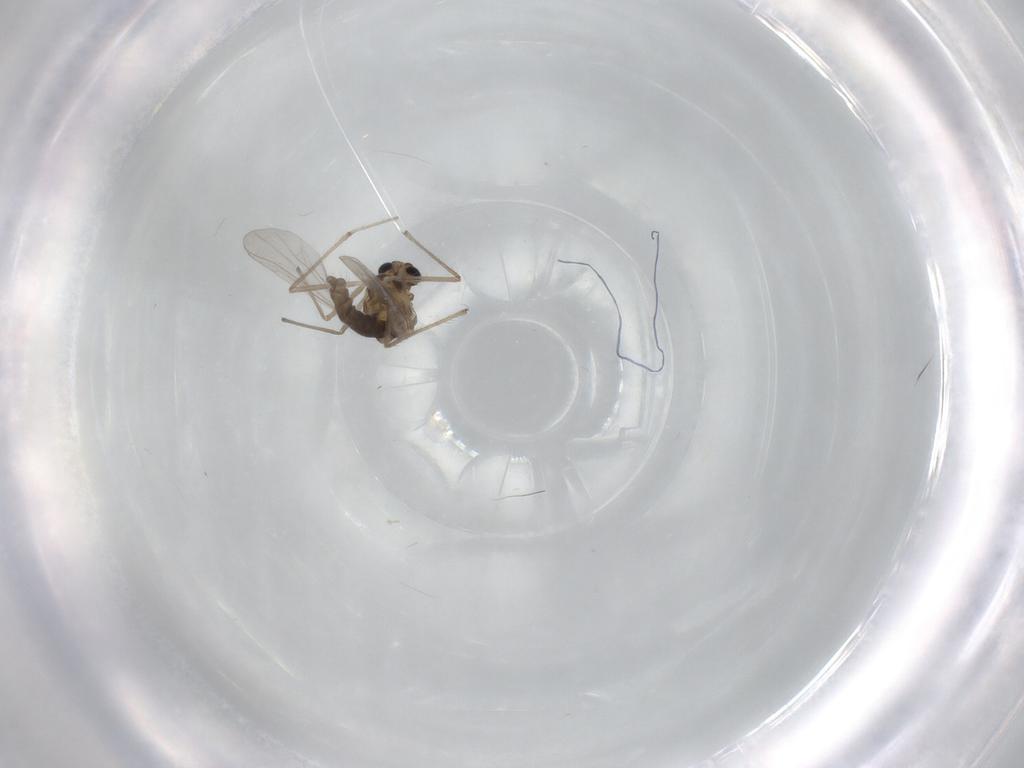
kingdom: Animalia
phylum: Arthropoda
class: Insecta
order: Diptera
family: Chironomidae
